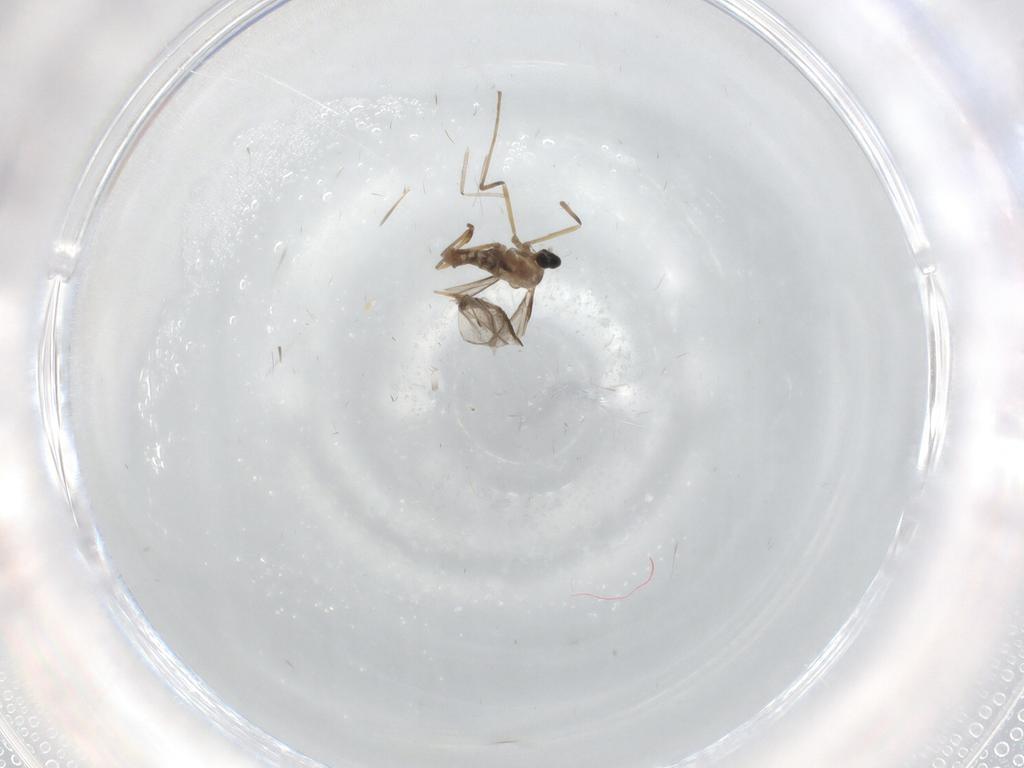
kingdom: Animalia
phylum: Arthropoda
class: Insecta
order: Diptera
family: Cecidomyiidae
